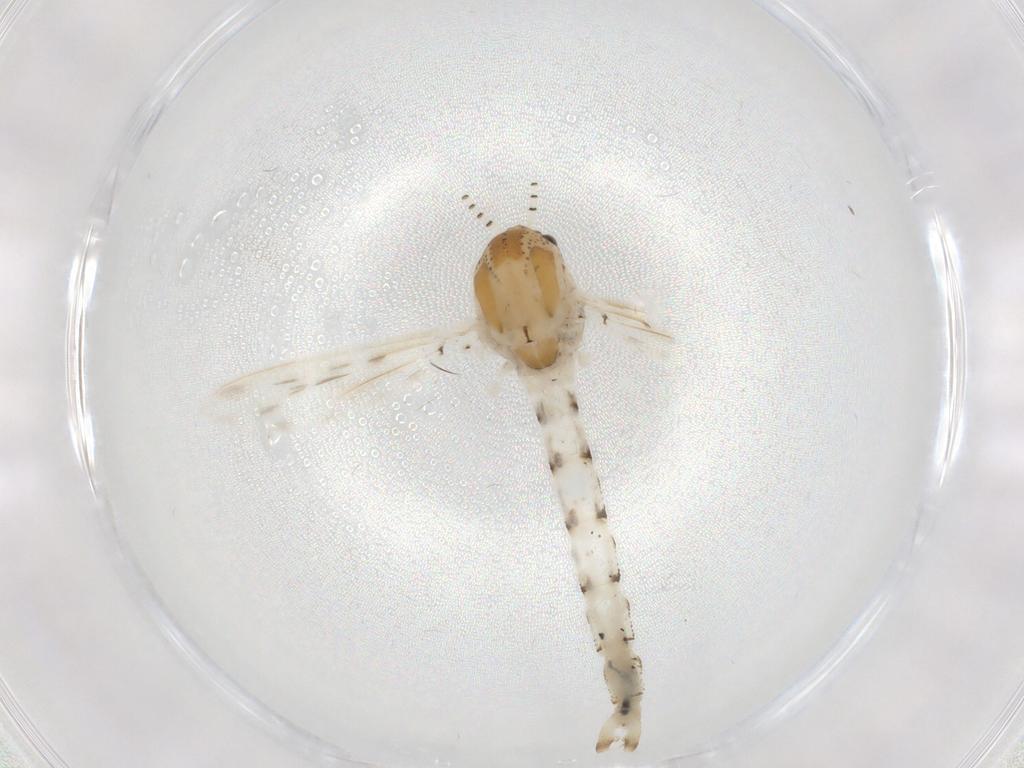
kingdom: Animalia
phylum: Arthropoda
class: Insecta
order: Diptera
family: Chaoboridae
